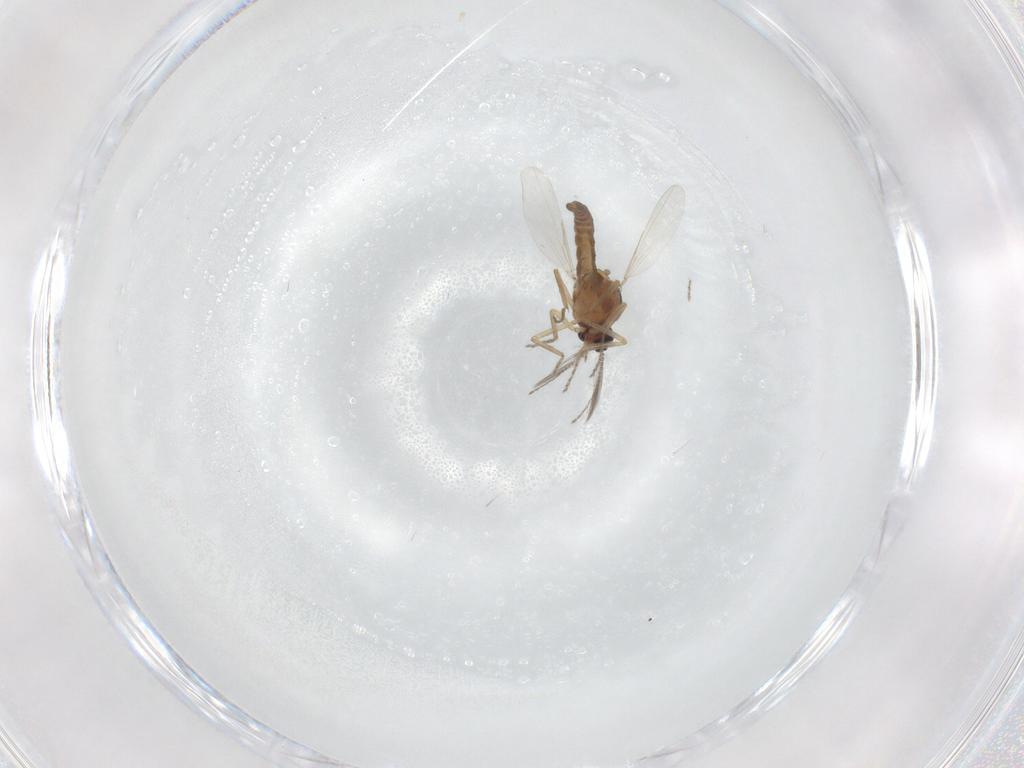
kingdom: Animalia
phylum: Arthropoda
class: Insecta
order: Diptera
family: Ceratopogonidae
